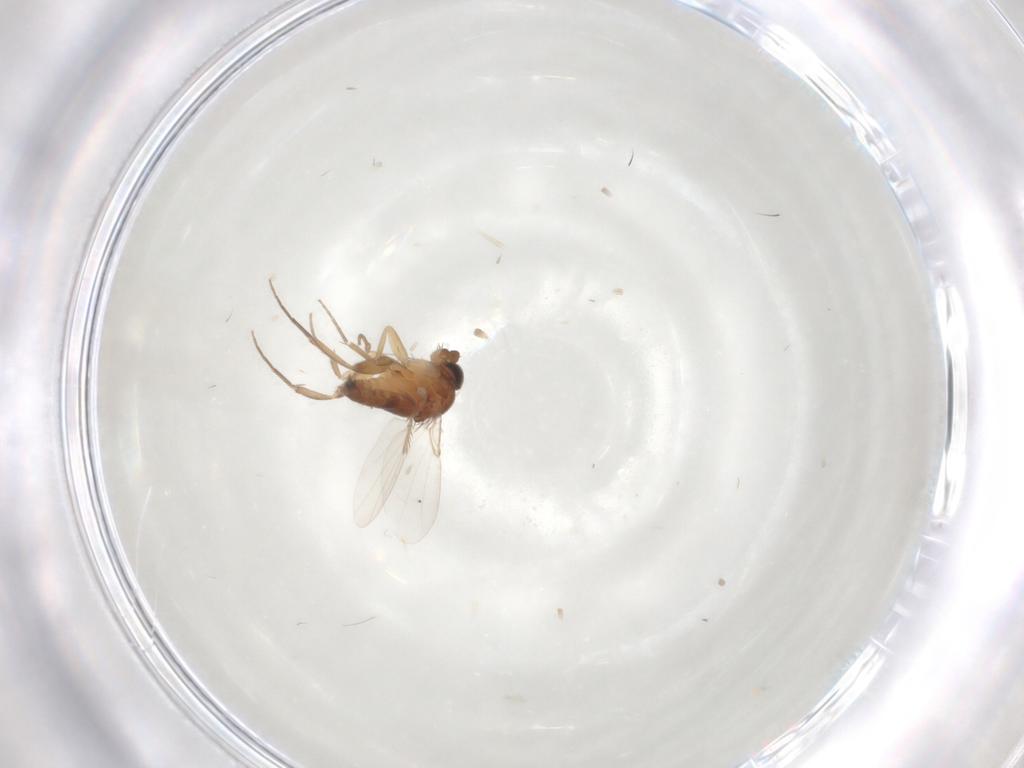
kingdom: Animalia
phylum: Arthropoda
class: Insecta
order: Diptera
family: Phoridae
